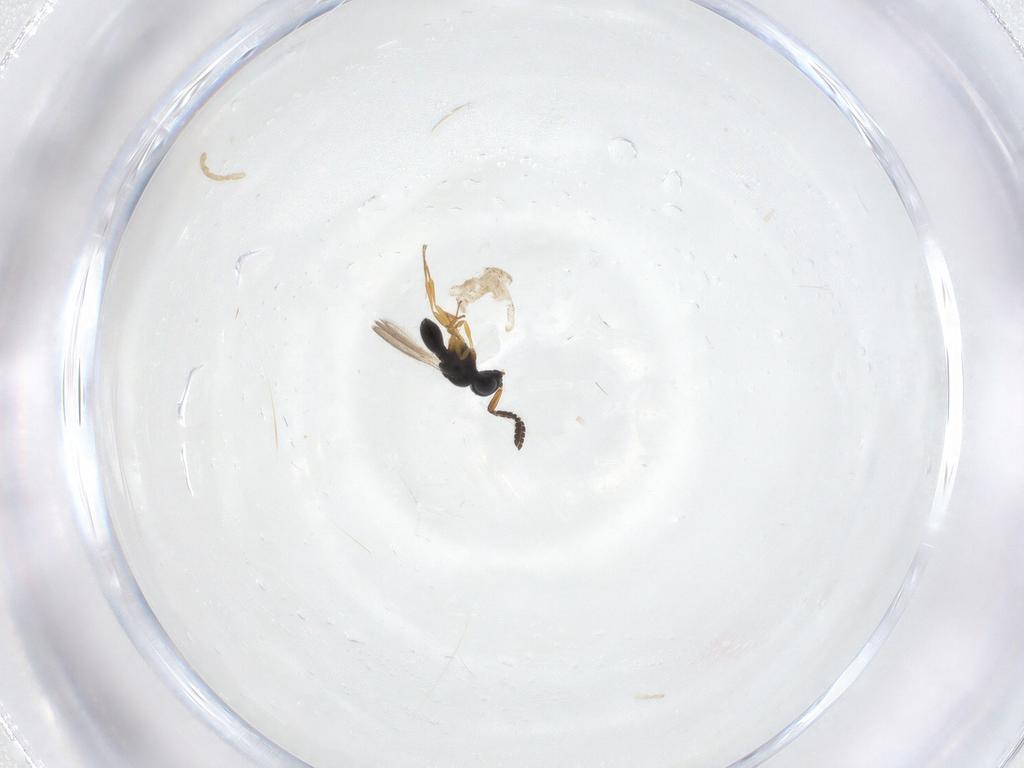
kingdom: Animalia
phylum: Arthropoda
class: Insecta
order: Hymenoptera
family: Scelionidae
